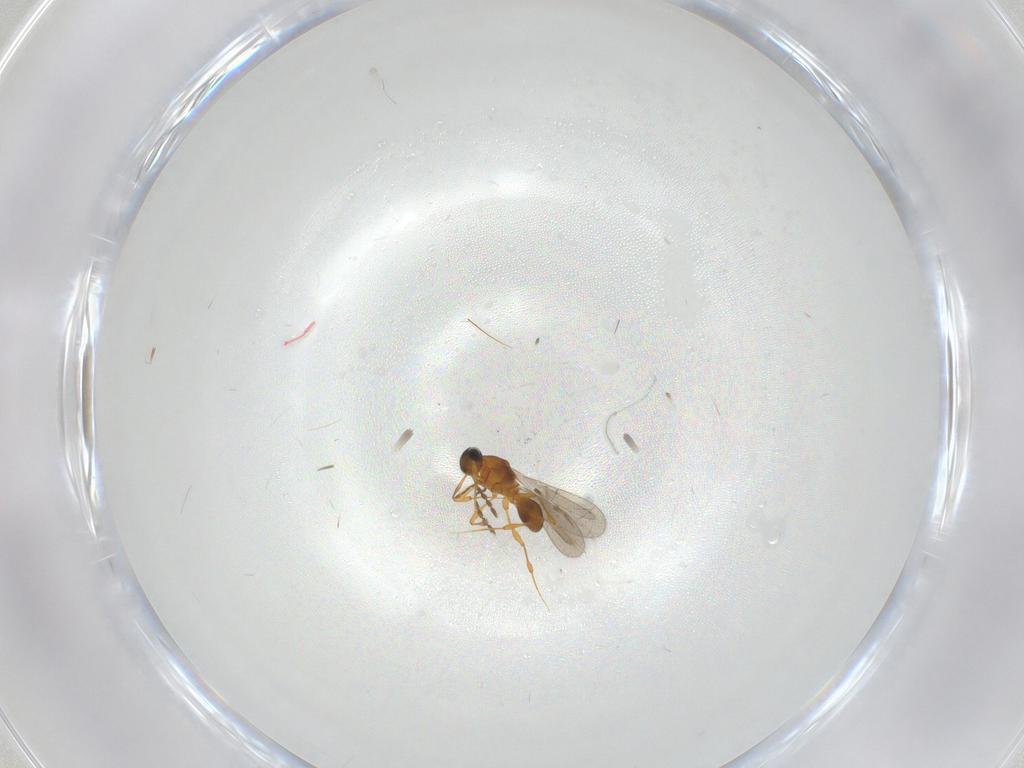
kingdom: Animalia
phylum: Arthropoda
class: Insecta
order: Hymenoptera
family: Platygastridae
